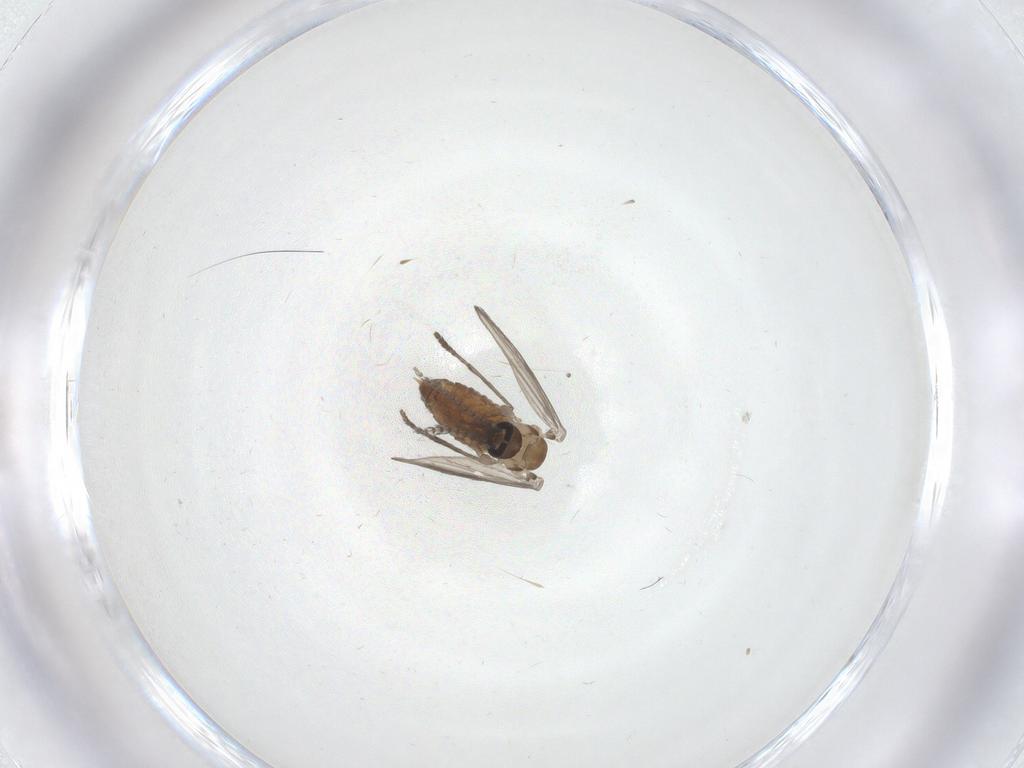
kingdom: Animalia
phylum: Arthropoda
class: Insecta
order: Diptera
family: Psychodidae
